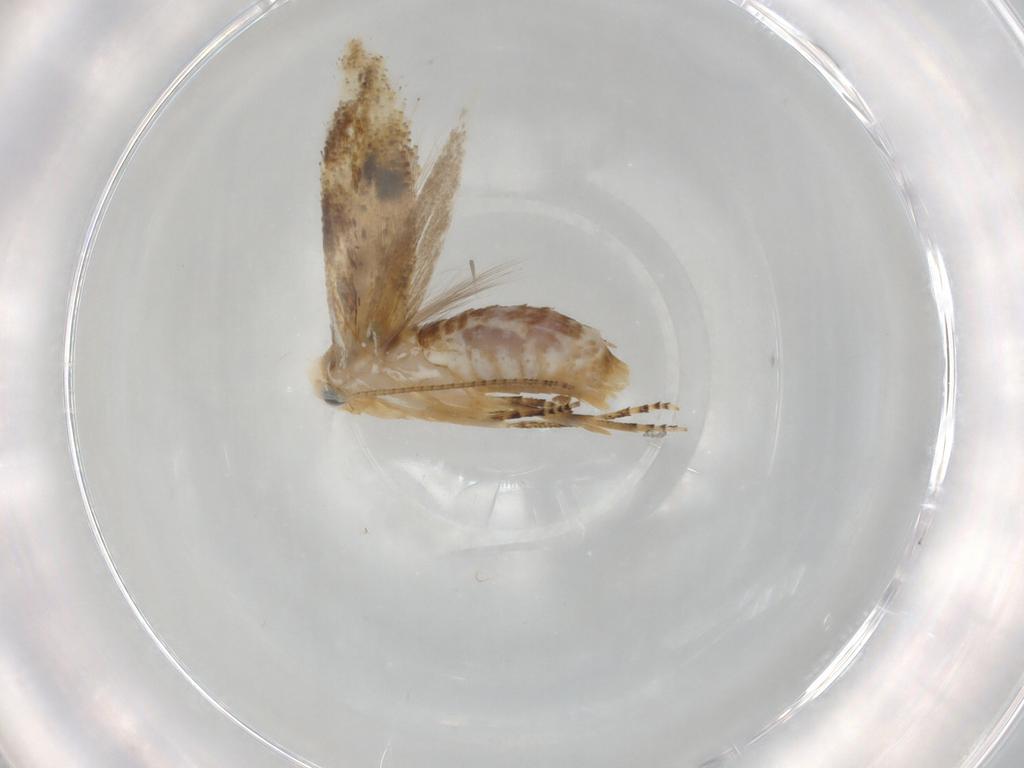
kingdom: Animalia
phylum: Arthropoda
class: Insecta
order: Lepidoptera
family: Bucculatricidae
